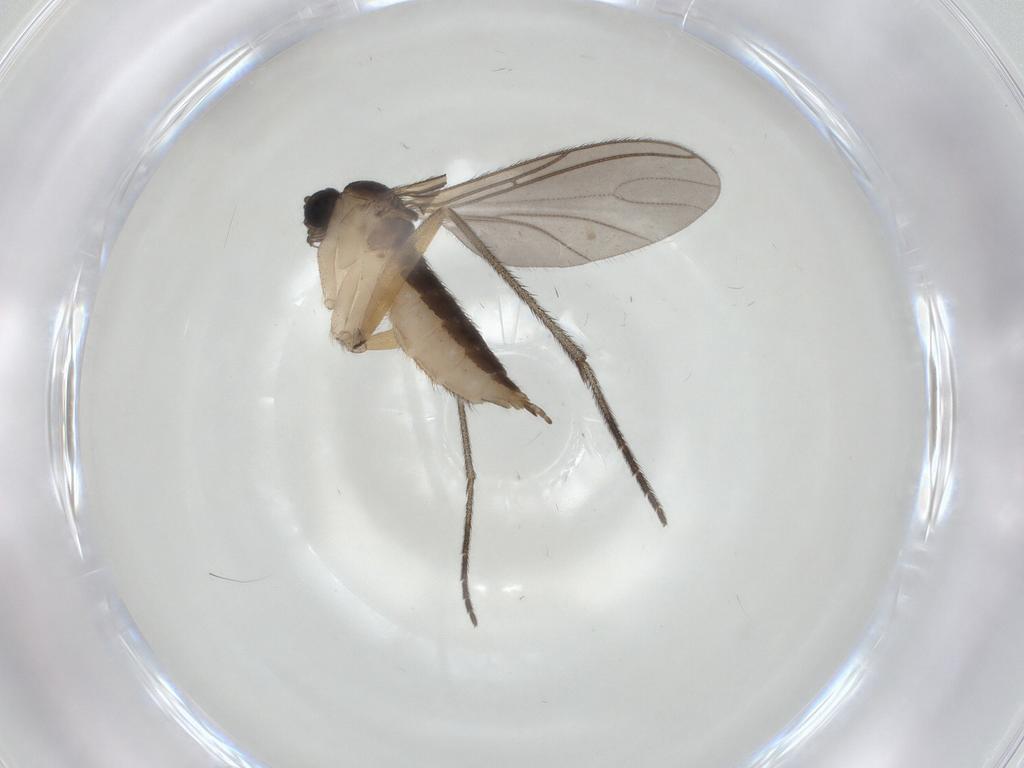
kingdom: Animalia
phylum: Arthropoda
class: Insecta
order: Diptera
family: Sciaridae
